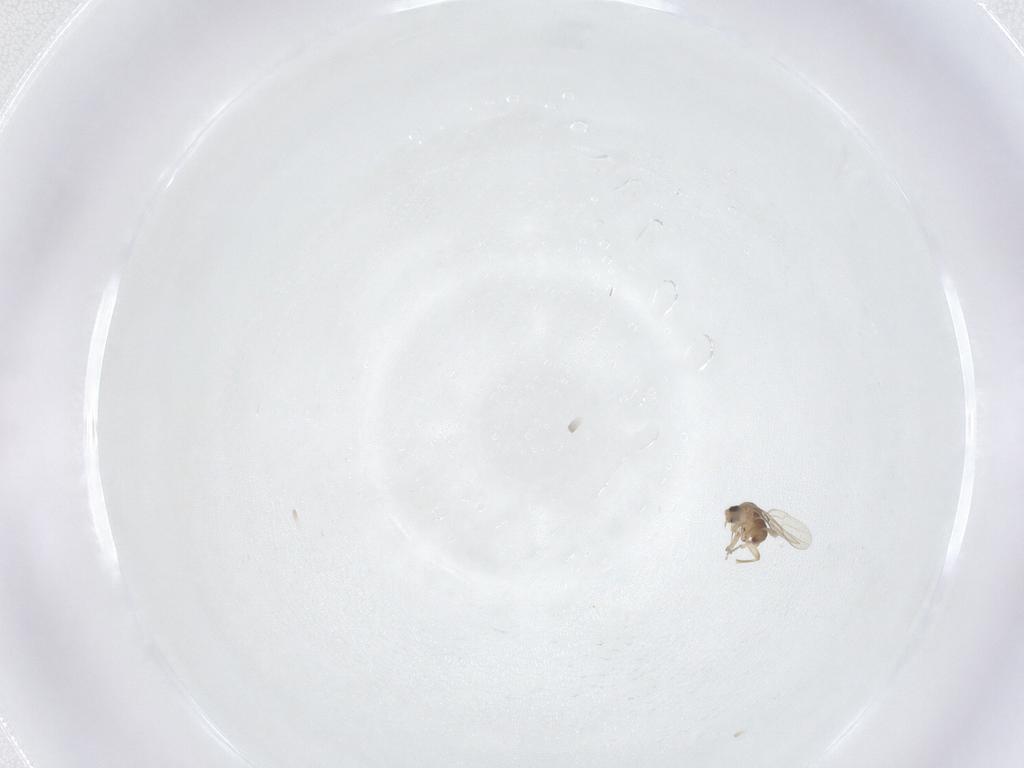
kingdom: Animalia
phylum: Arthropoda
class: Insecta
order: Diptera
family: Phoridae
